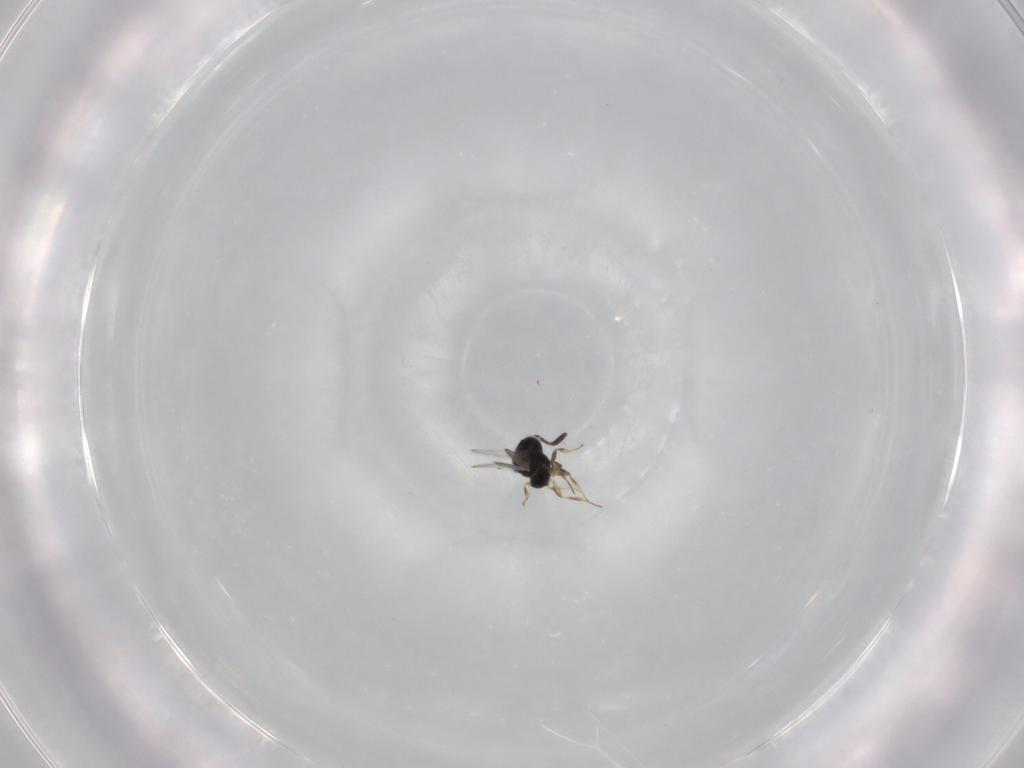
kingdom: Animalia
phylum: Arthropoda
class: Insecta
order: Hymenoptera
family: Scelionidae
